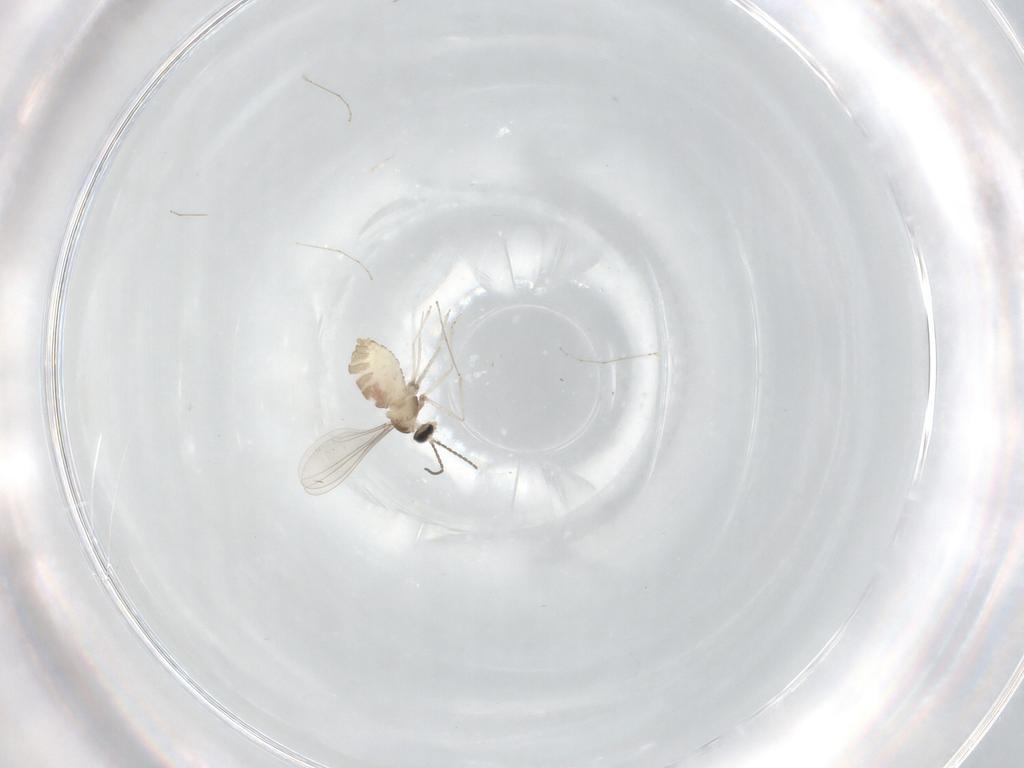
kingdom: Animalia
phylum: Arthropoda
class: Insecta
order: Diptera
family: Cecidomyiidae
